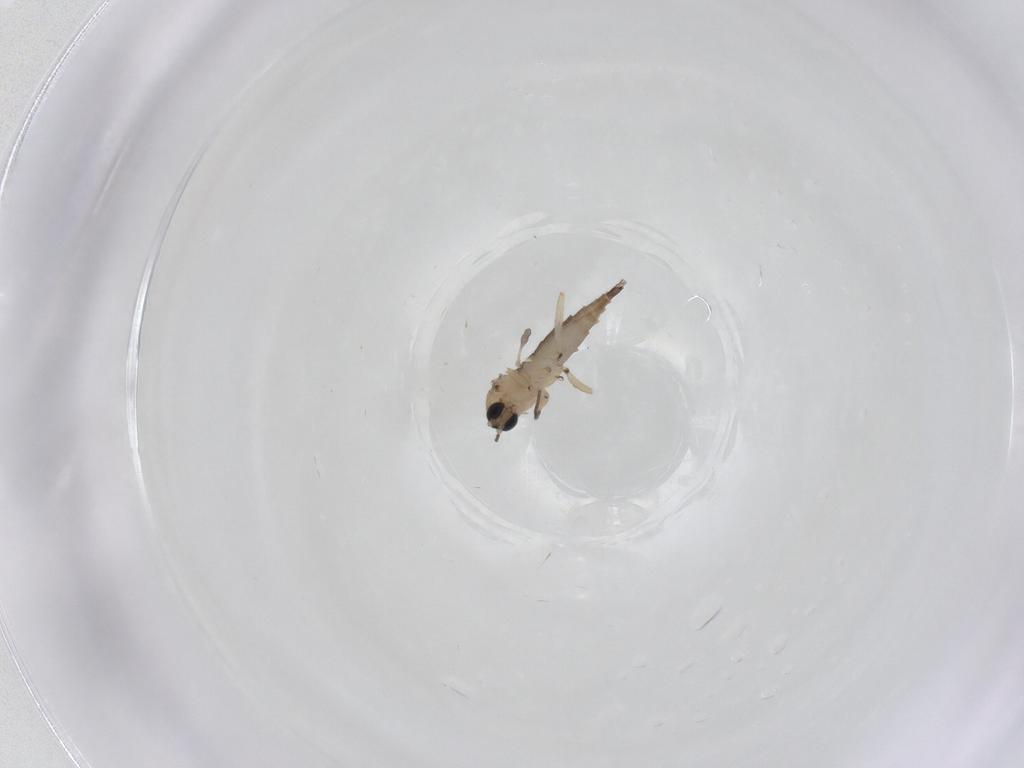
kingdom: Animalia
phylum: Arthropoda
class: Insecta
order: Diptera
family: Sciaridae
